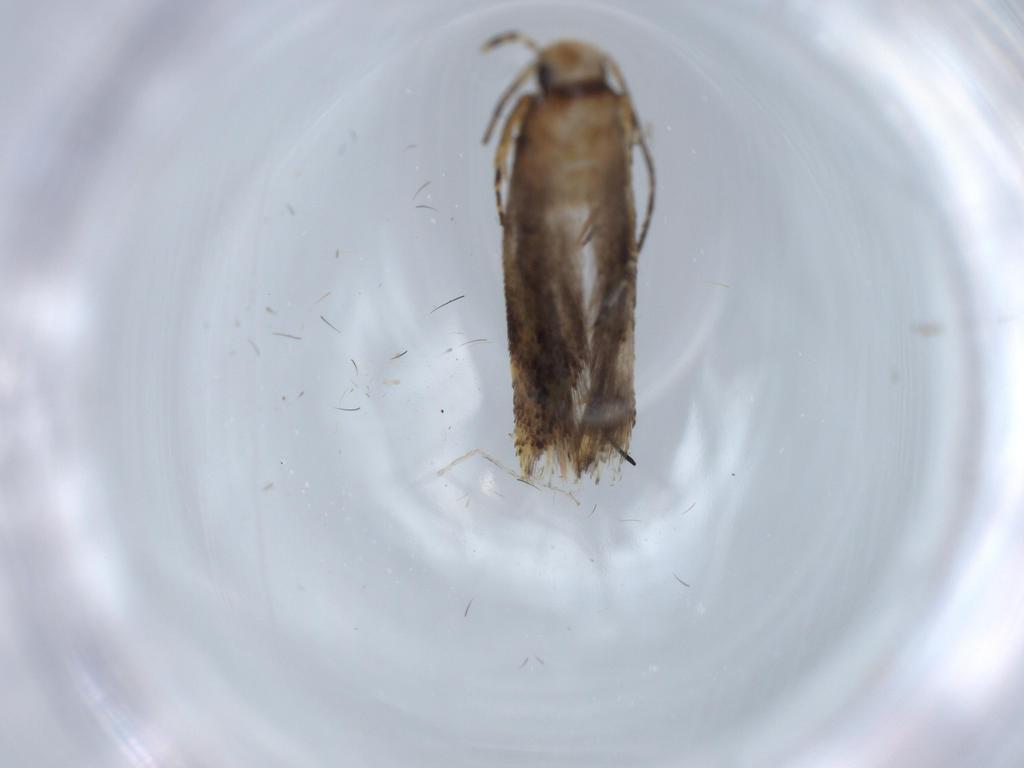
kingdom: Animalia
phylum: Arthropoda
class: Insecta
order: Lepidoptera
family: Gelechiidae
